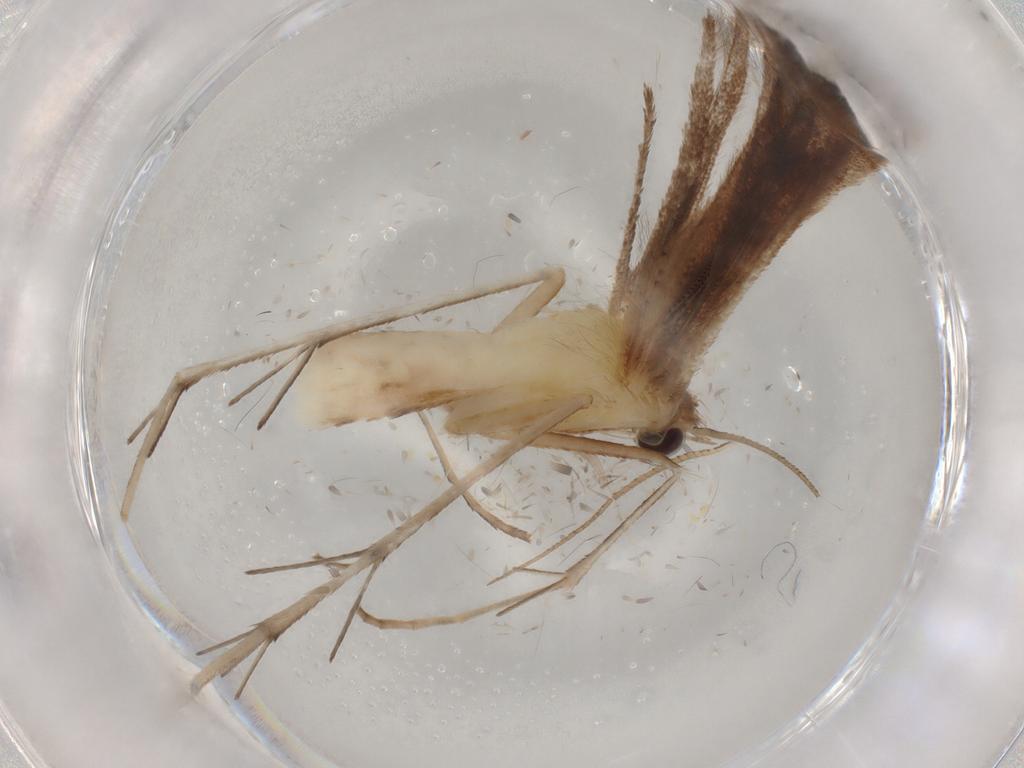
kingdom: Animalia
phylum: Arthropoda
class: Insecta
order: Lepidoptera
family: Pterophoridae
